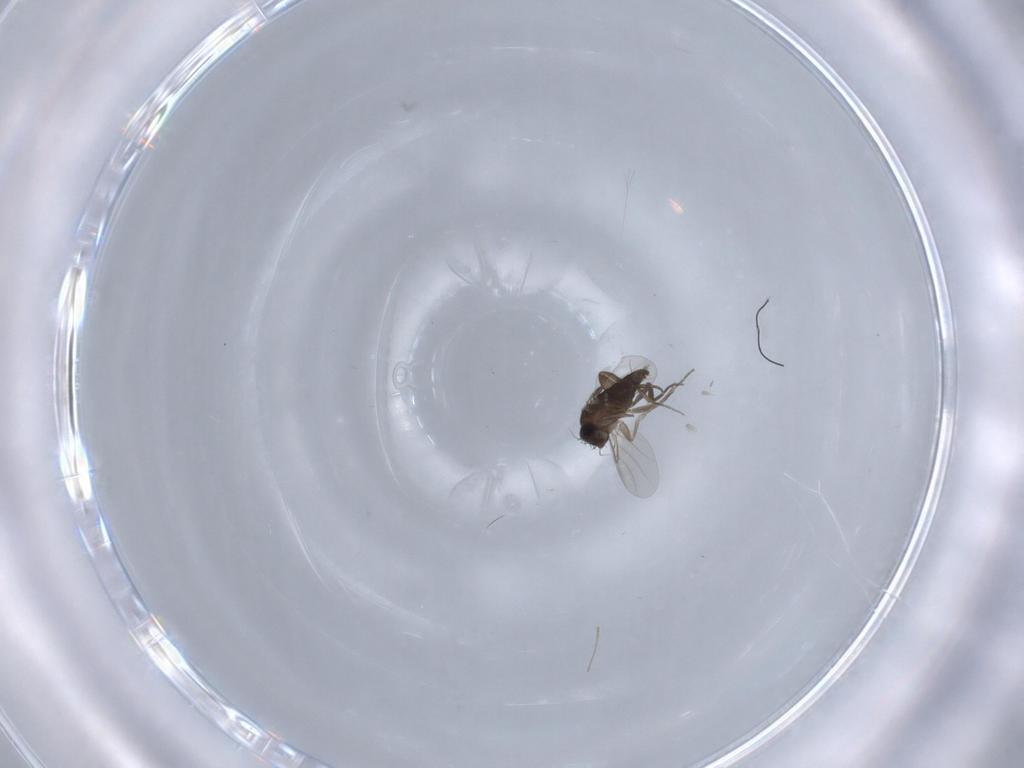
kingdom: Animalia
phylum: Arthropoda
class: Insecta
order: Diptera
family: Phoridae
